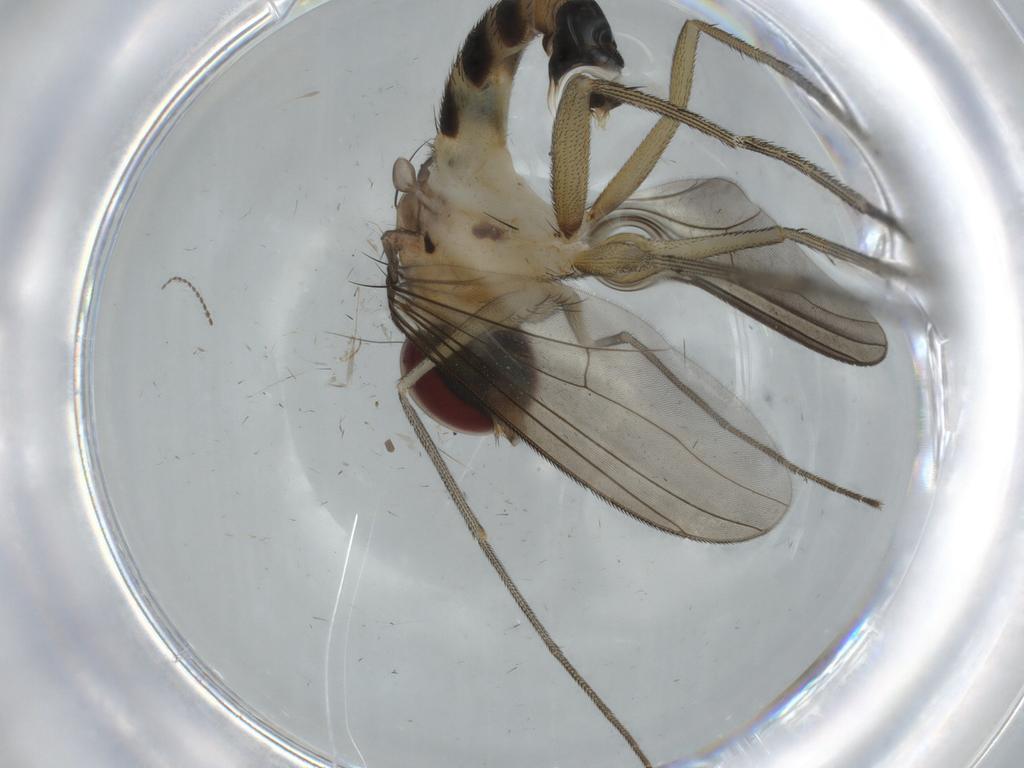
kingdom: Animalia
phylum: Arthropoda
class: Insecta
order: Diptera
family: Dolichopodidae
